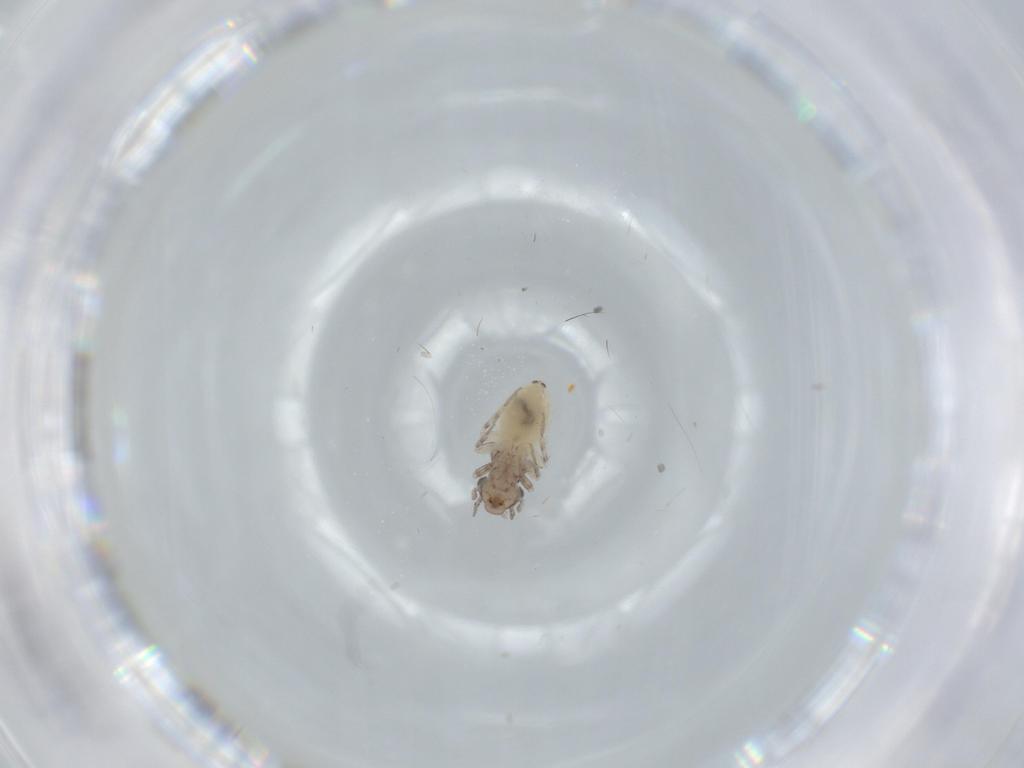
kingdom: Animalia
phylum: Arthropoda
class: Insecta
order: Psocodea
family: Lepidopsocidae
